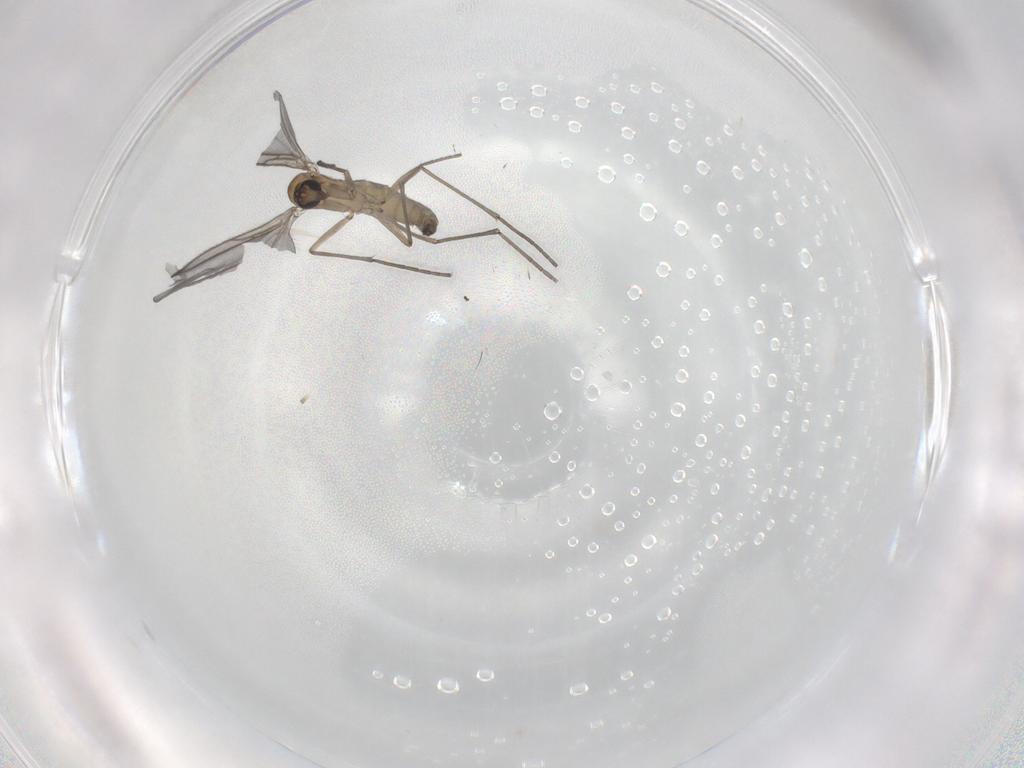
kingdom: Animalia
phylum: Arthropoda
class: Insecta
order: Diptera
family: Sciaridae
